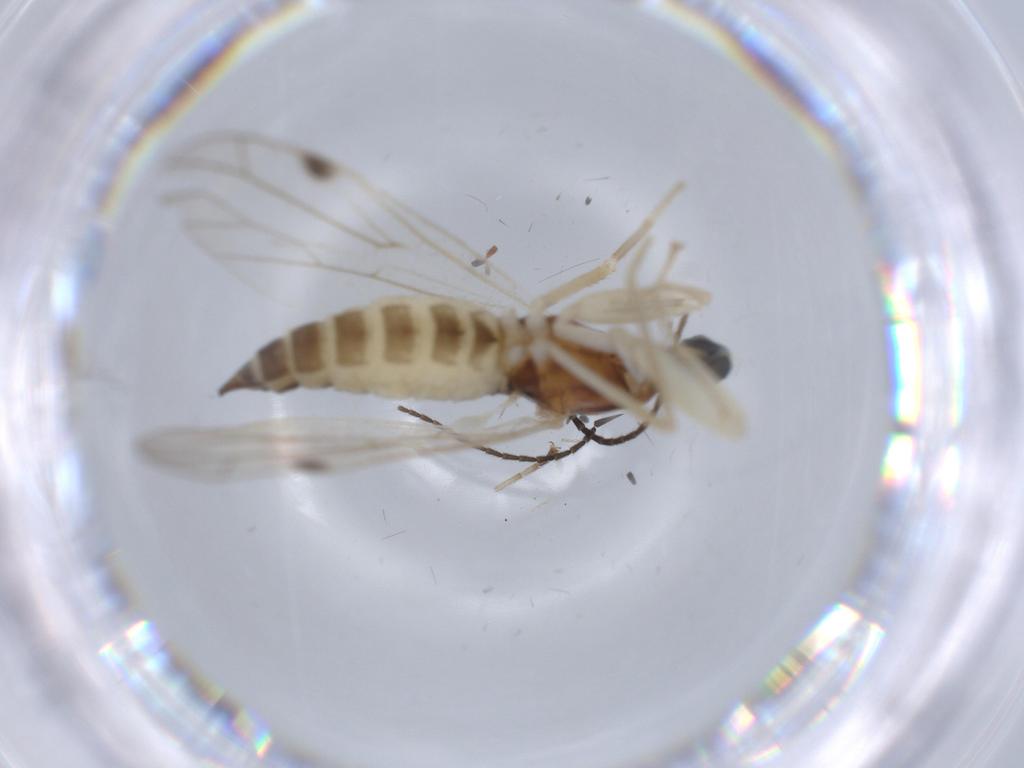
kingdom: Animalia
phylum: Arthropoda
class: Insecta
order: Diptera
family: Empididae
